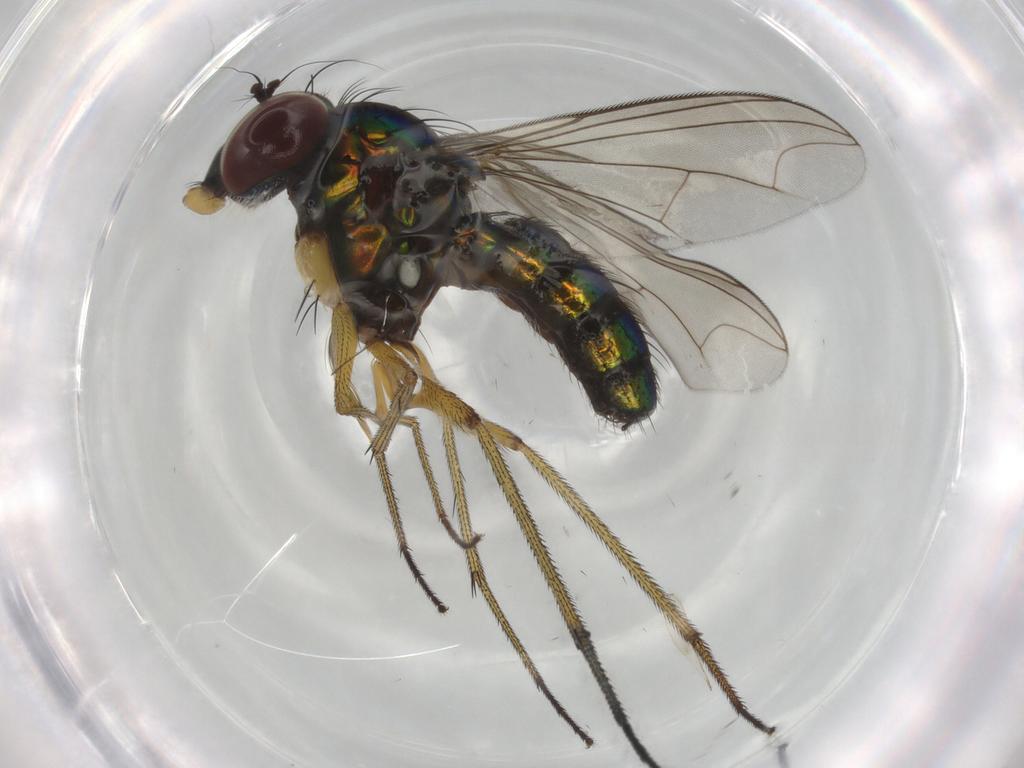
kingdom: Animalia
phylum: Arthropoda
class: Insecta
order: Diptera
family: Dolichopodidae
